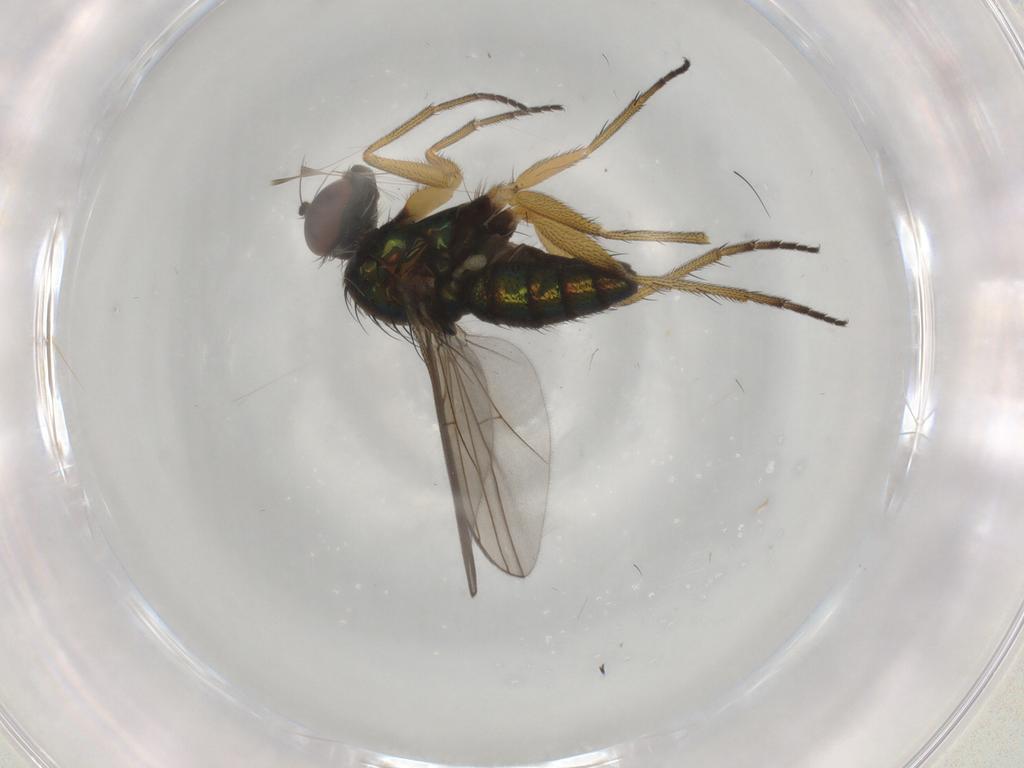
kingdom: Animalia
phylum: Arthropoda
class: Insecta
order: Diptera
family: Dolichopodidae
